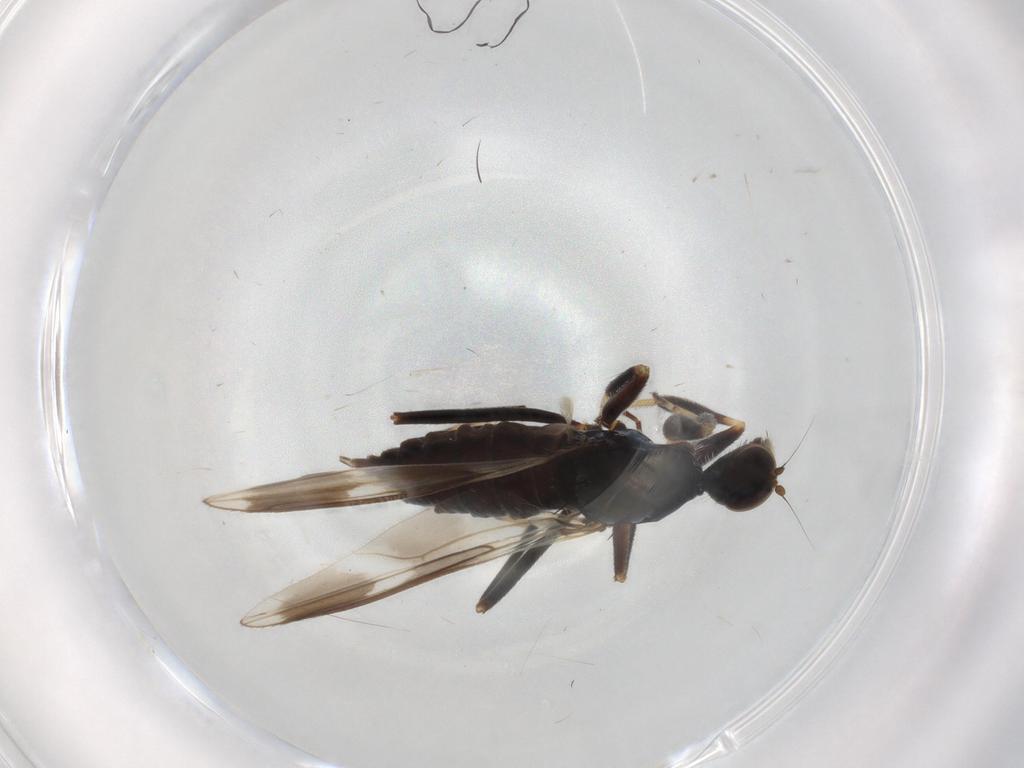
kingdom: Animalia
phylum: Arthropoda
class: Insecta
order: Diptera
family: Hybotidae
